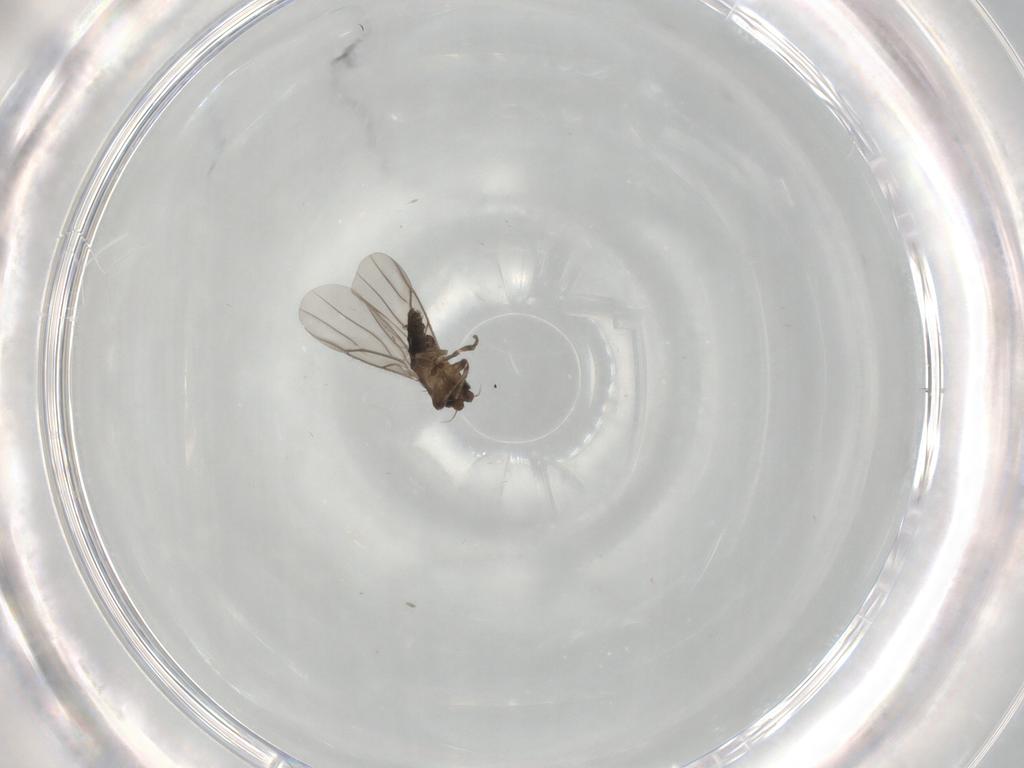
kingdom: Animalia
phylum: Arthropoda
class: Insecta
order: Diptera
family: Phoridae
